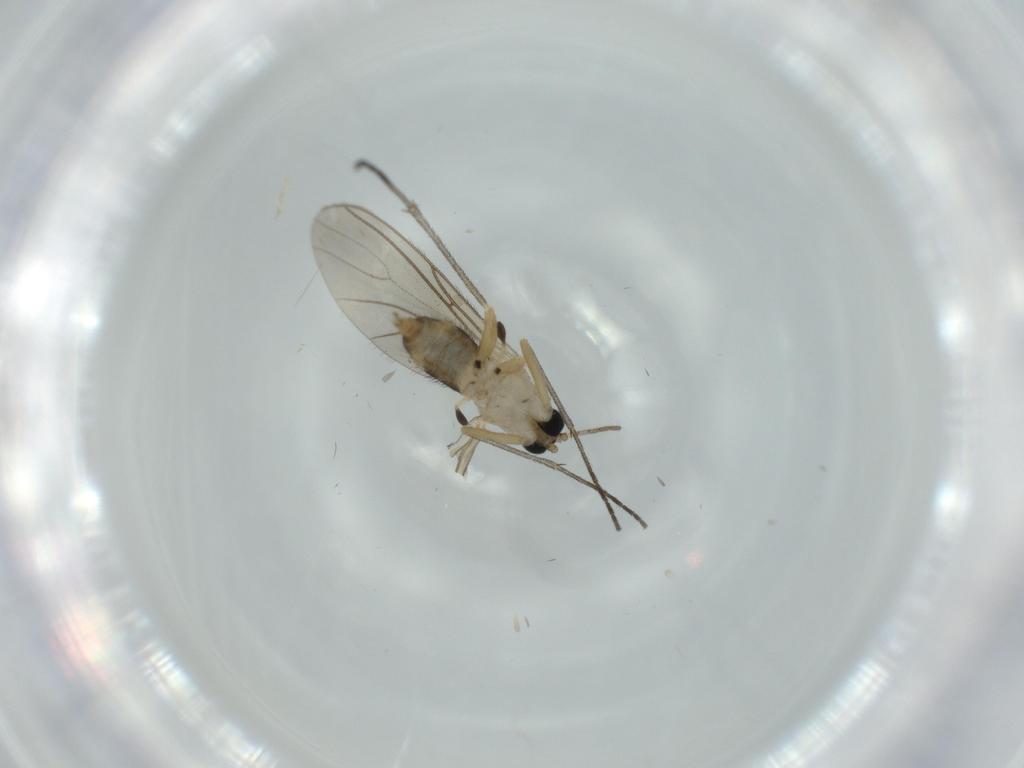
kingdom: Animalia
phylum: Arthropoda
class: Insecta
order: Diptera
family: Sciaridae
